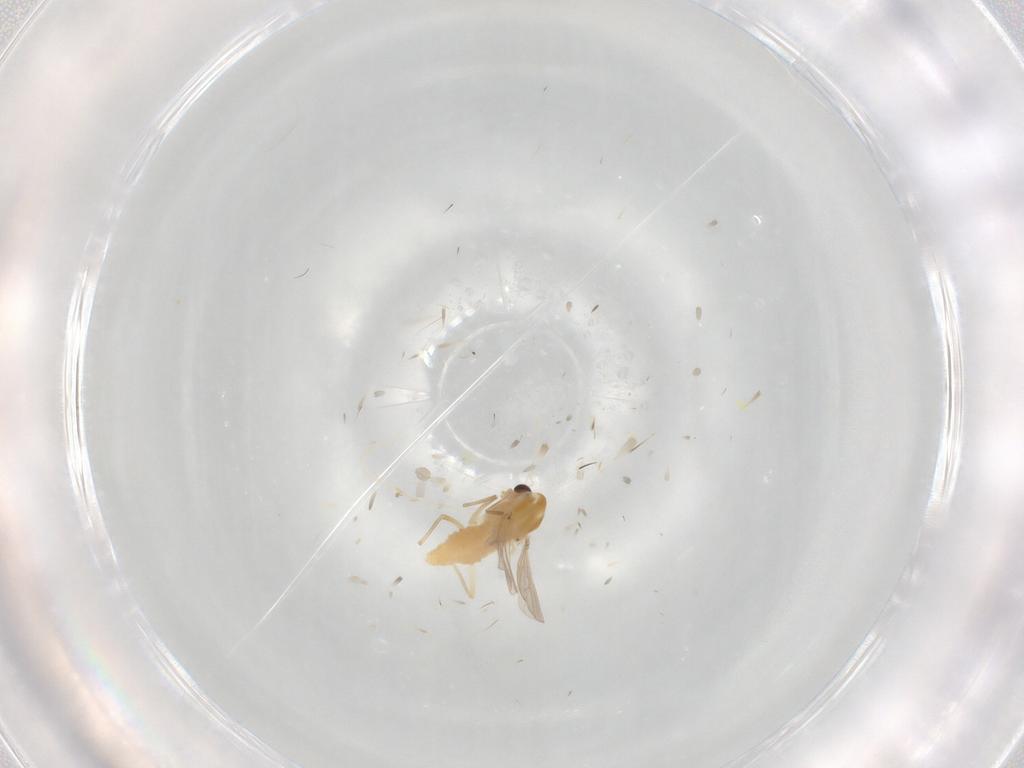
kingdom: Animalia
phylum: Arthropoda
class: Insecta
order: Diptera
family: Chironomidae
